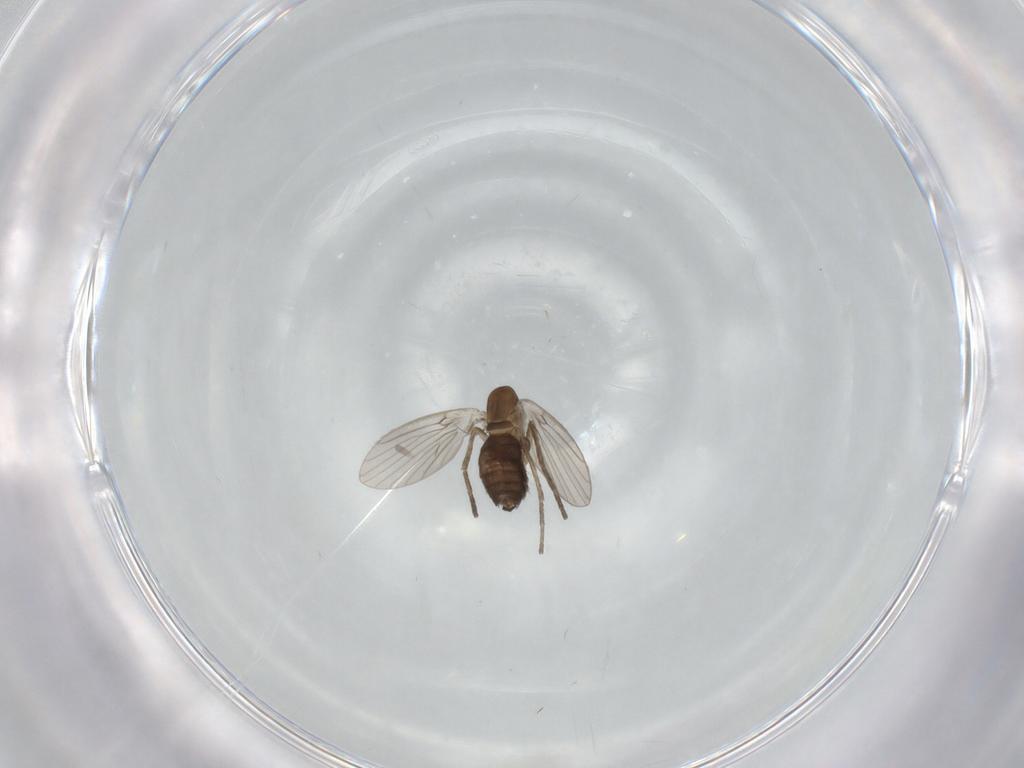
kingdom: Animalia
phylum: Arthropoda
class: Insecta
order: Diptera
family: Psychodidae
